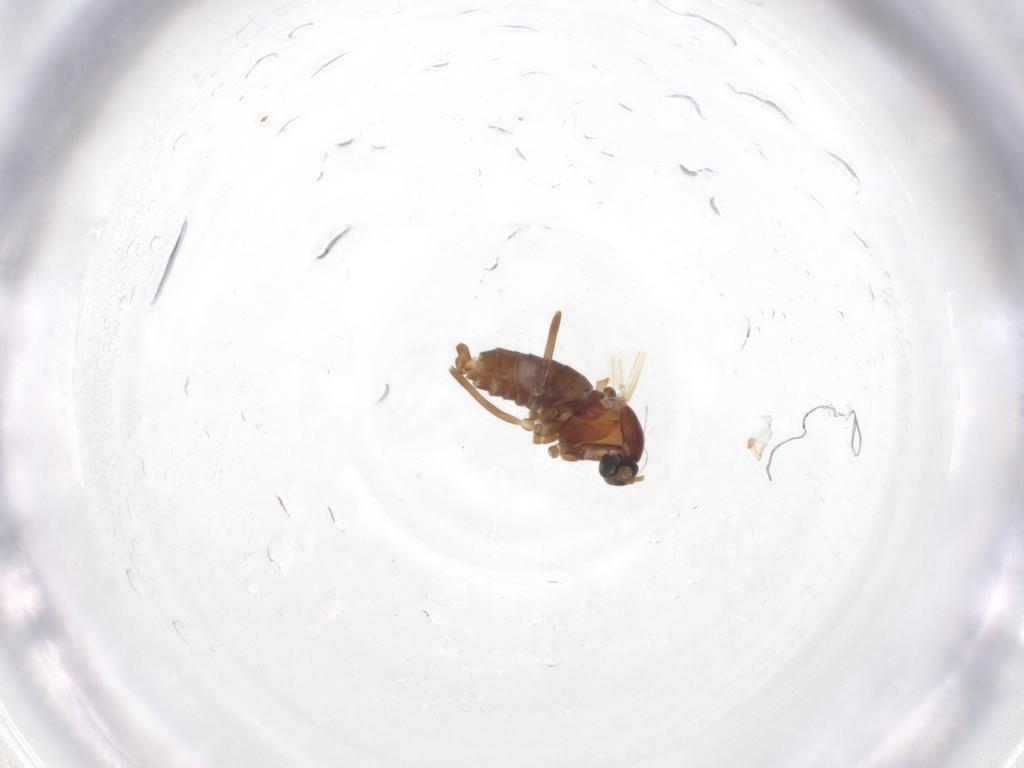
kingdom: Animalia
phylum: Arthropoda
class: Insecta
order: Diptera
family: Cecidomyiidae
